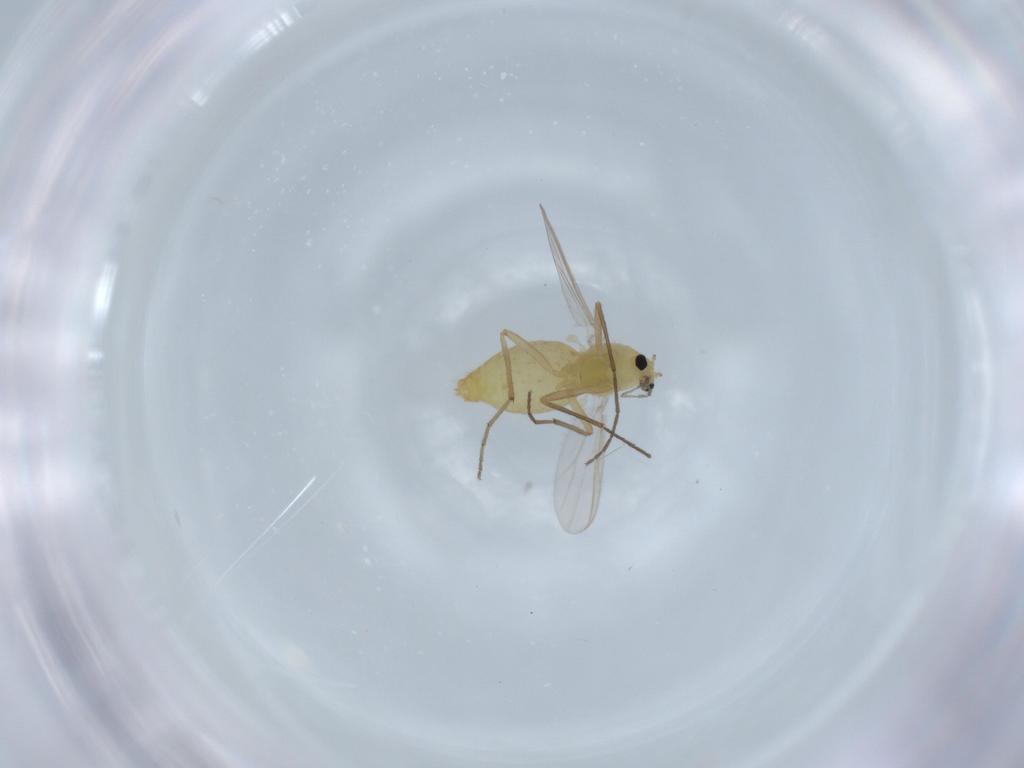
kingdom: Animalia
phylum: Arthropoda
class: Insecta
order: Diptera
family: Chironomidae
